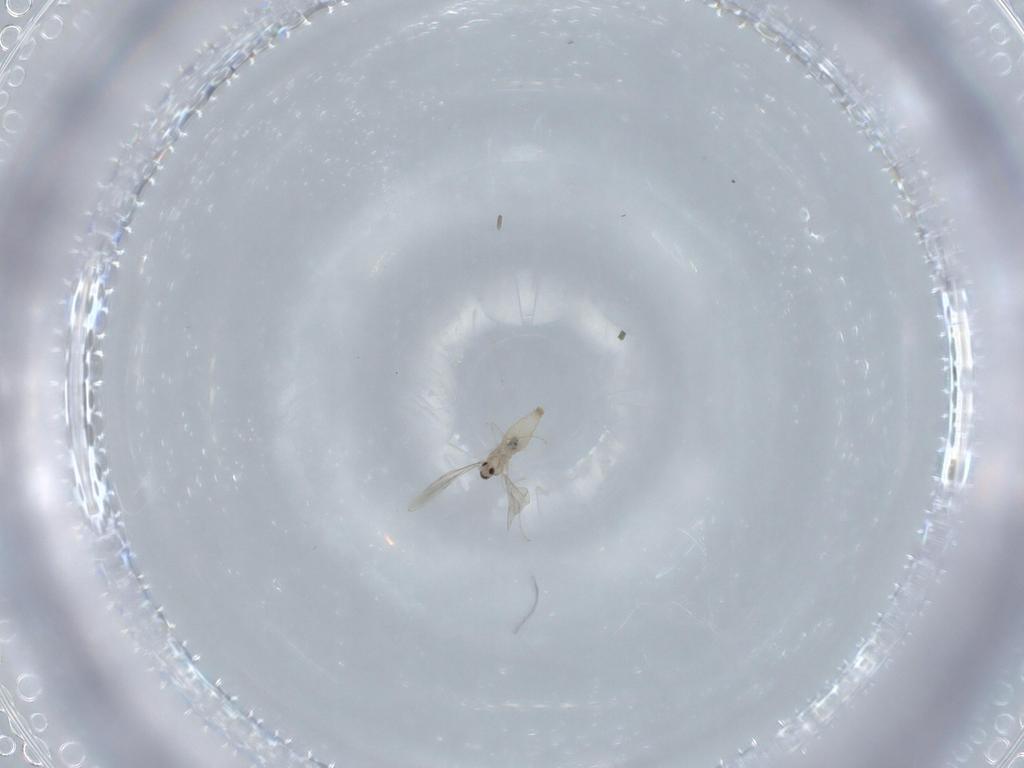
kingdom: Animalia
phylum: Arthropoda
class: Insecta
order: Diptera
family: Cecidomyiidae
